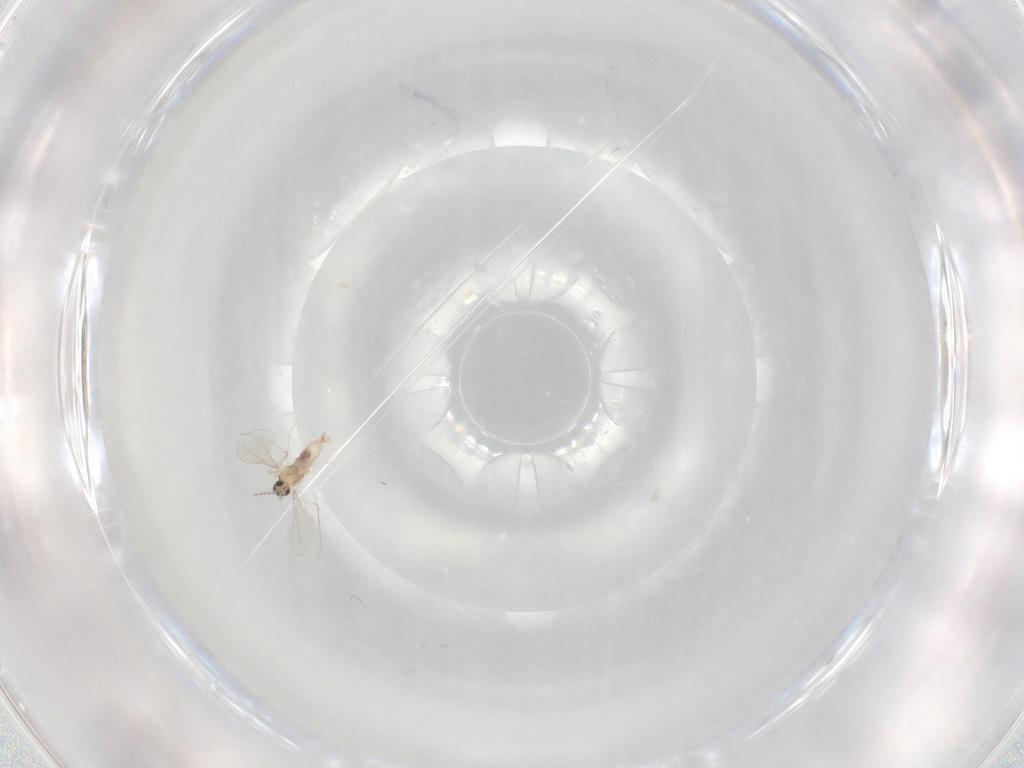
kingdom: Animalia
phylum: Arthropoda
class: Insecta
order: Diptera
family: Cecidomyiidae
